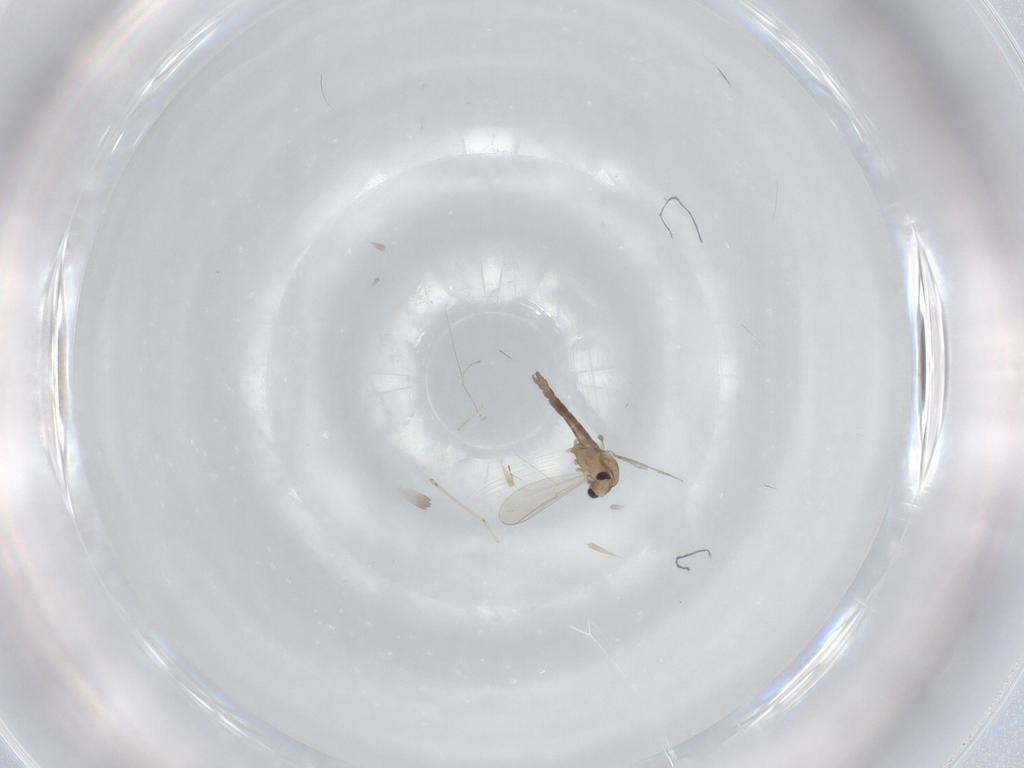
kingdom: Animalia
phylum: Arthropoda
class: Insecta
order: Diptera
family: Chironomidae
